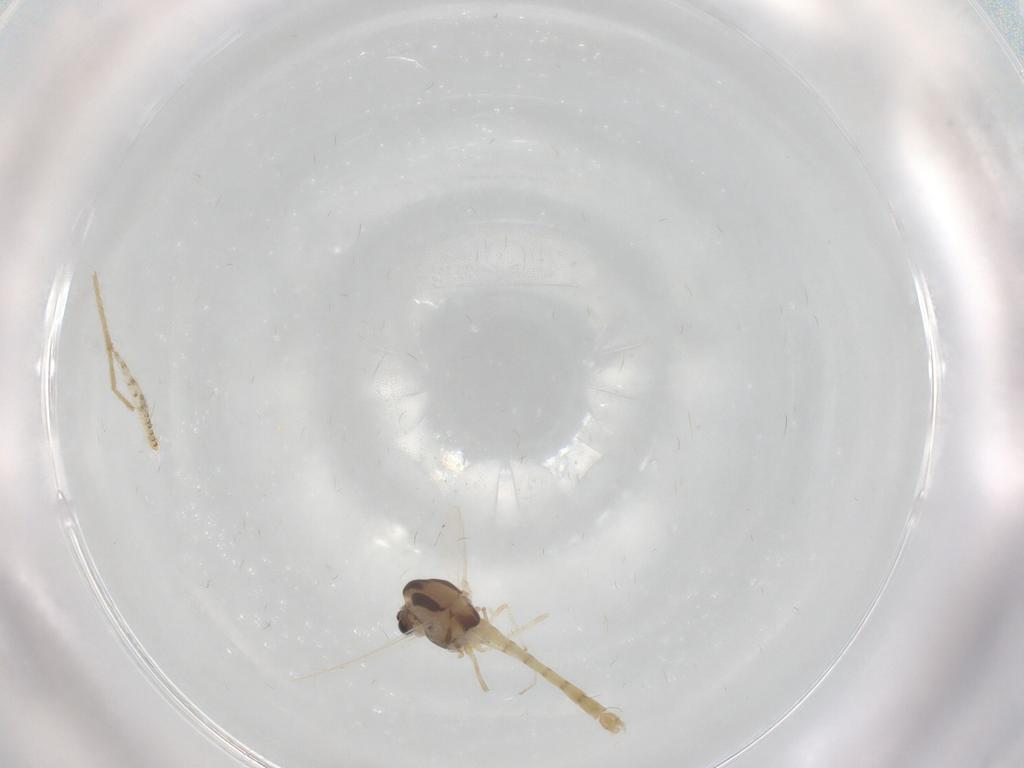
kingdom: Animalia
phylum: Arthropoda
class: Insecta
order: Diptera
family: Chironomidae
